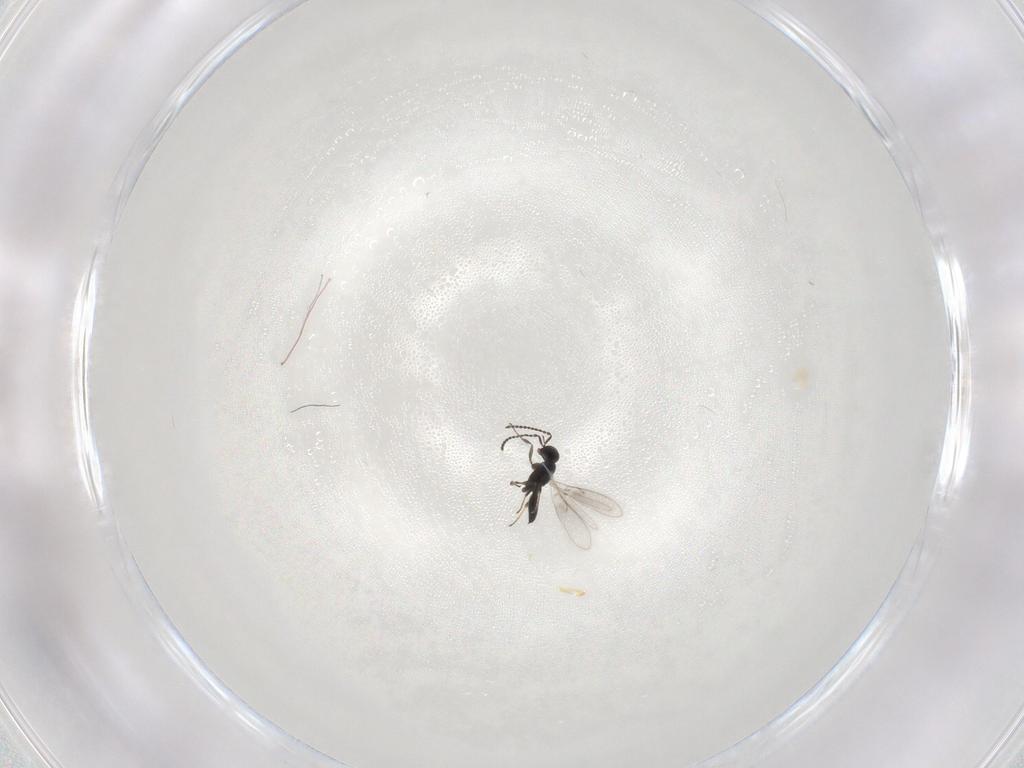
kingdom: Animalia
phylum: Arthropoda
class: Insecta
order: Hymenoptera
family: Scelionidae
